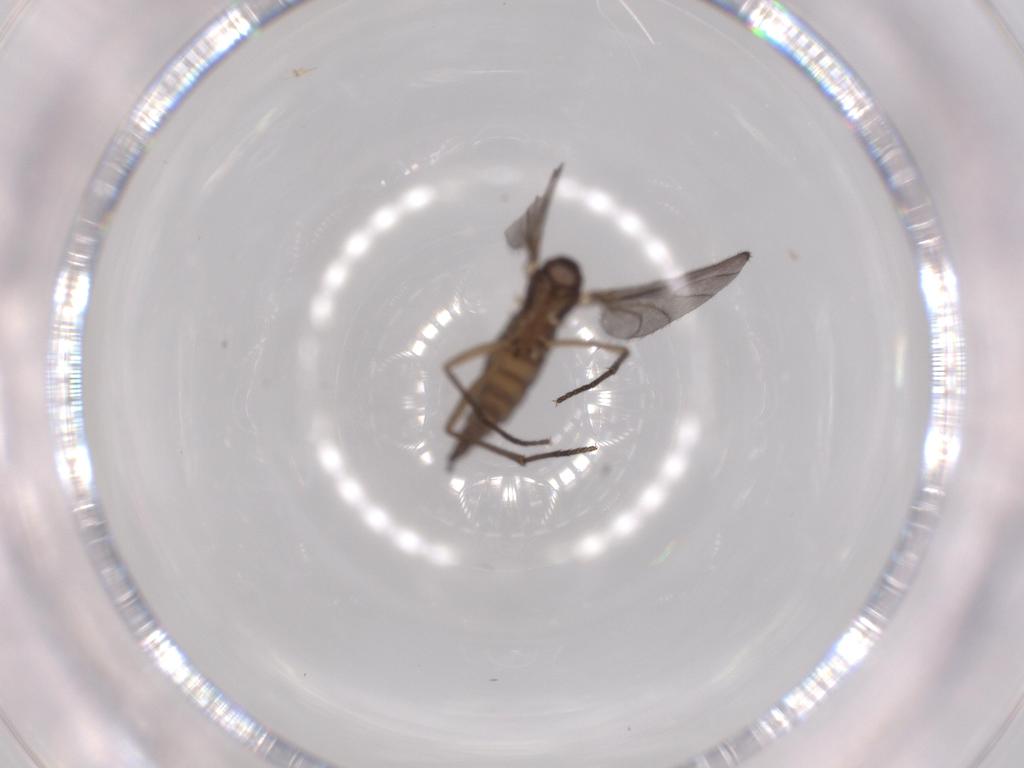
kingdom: Animalia
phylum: Arthropoda
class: Insecta
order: Diptera
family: Sciaridae
